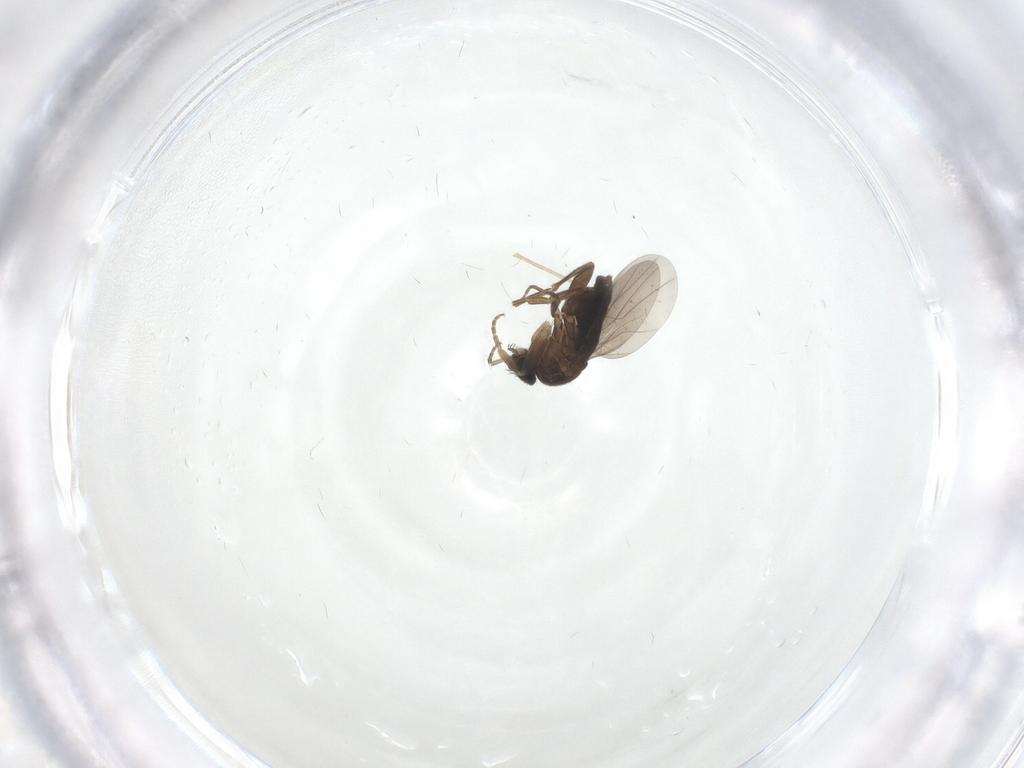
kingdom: Animalia
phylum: Arthropoda
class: Insecta
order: Diptera
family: Phoridae
